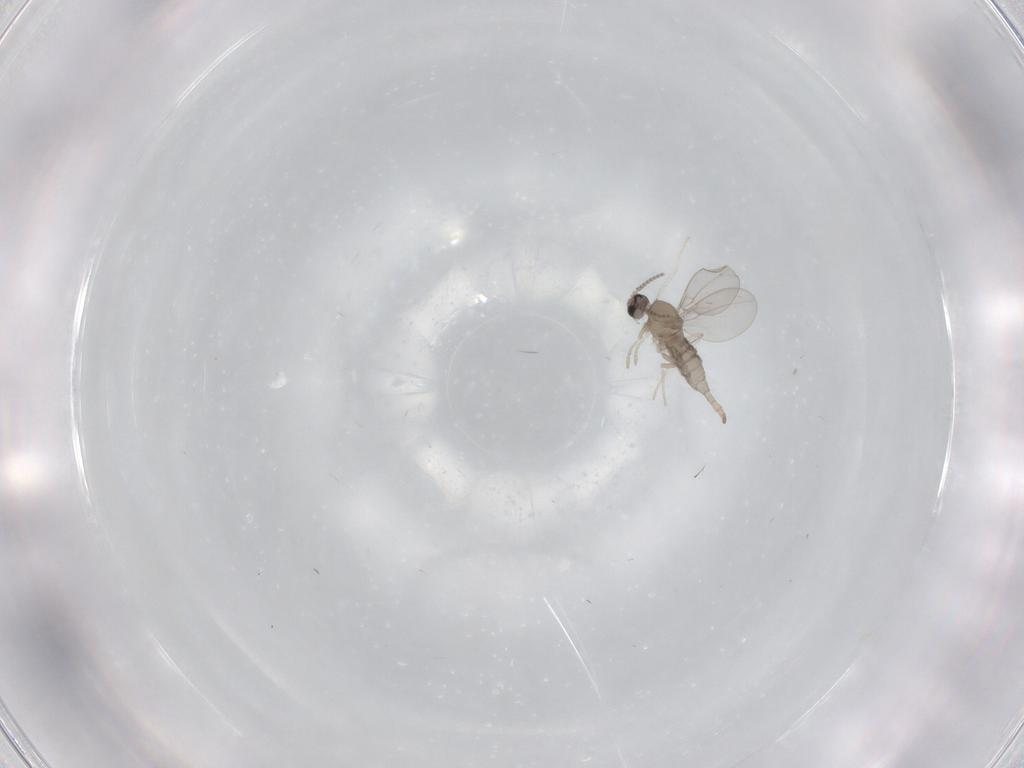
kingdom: Animalia
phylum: Arthropoda
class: Insecta
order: Diptera
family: Cecidomyiidae
